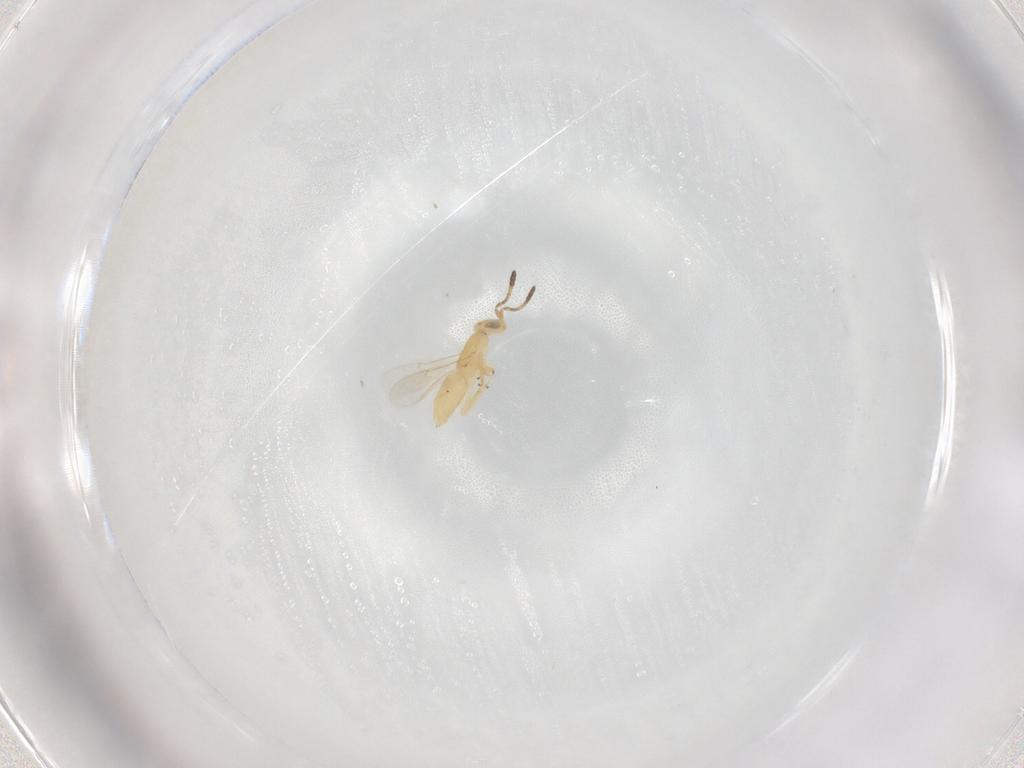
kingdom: Animalia
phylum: Arthropoda
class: Insecta
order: Hymenoptera
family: Encyrtidae
